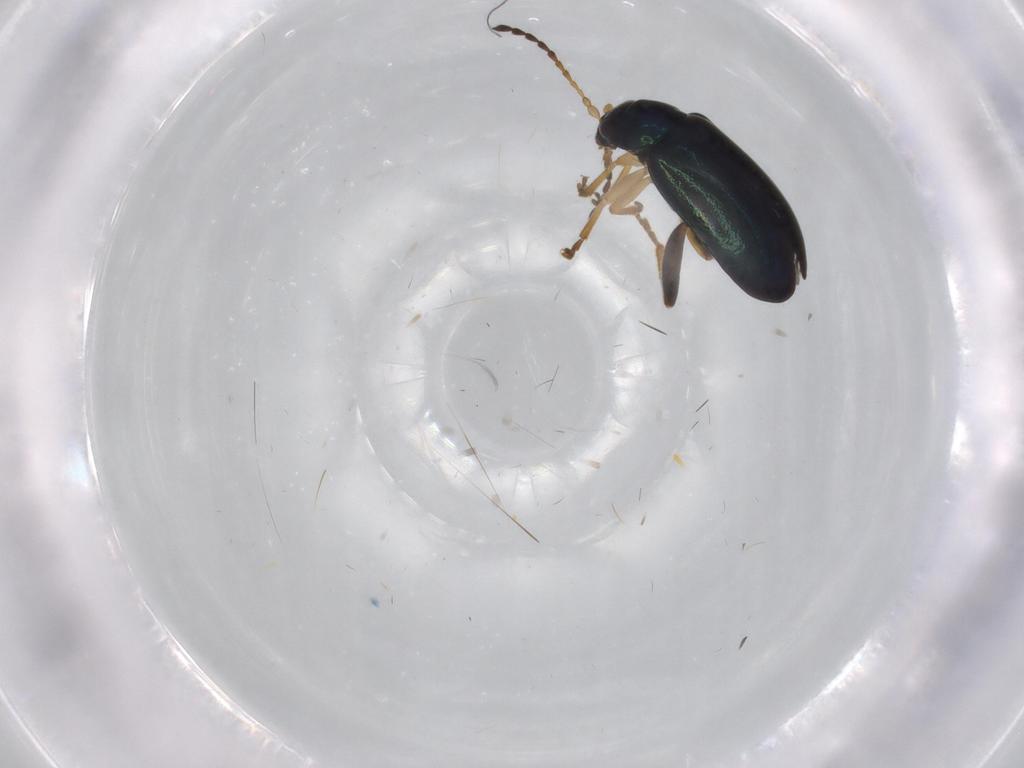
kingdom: Animalia
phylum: Arthropoda
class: Insecta
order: Coleoptera
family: Chrysomelidae
